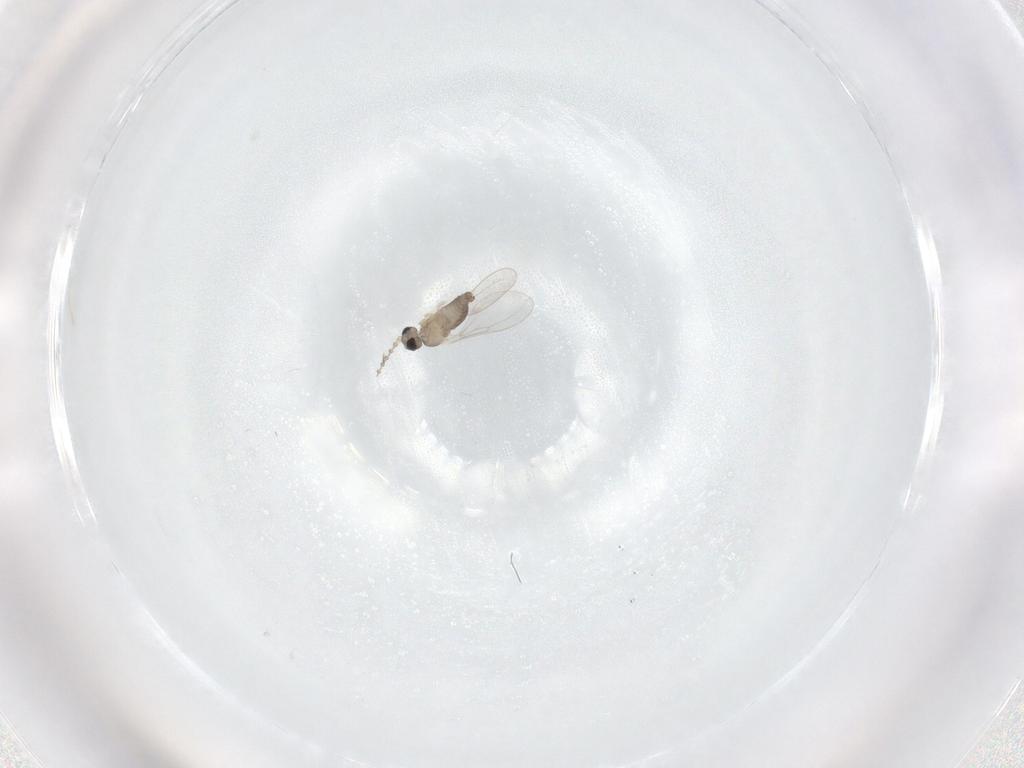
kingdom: Animalia
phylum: Arthropoda
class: Insecta
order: Diptera
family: Cecidomyiidae
